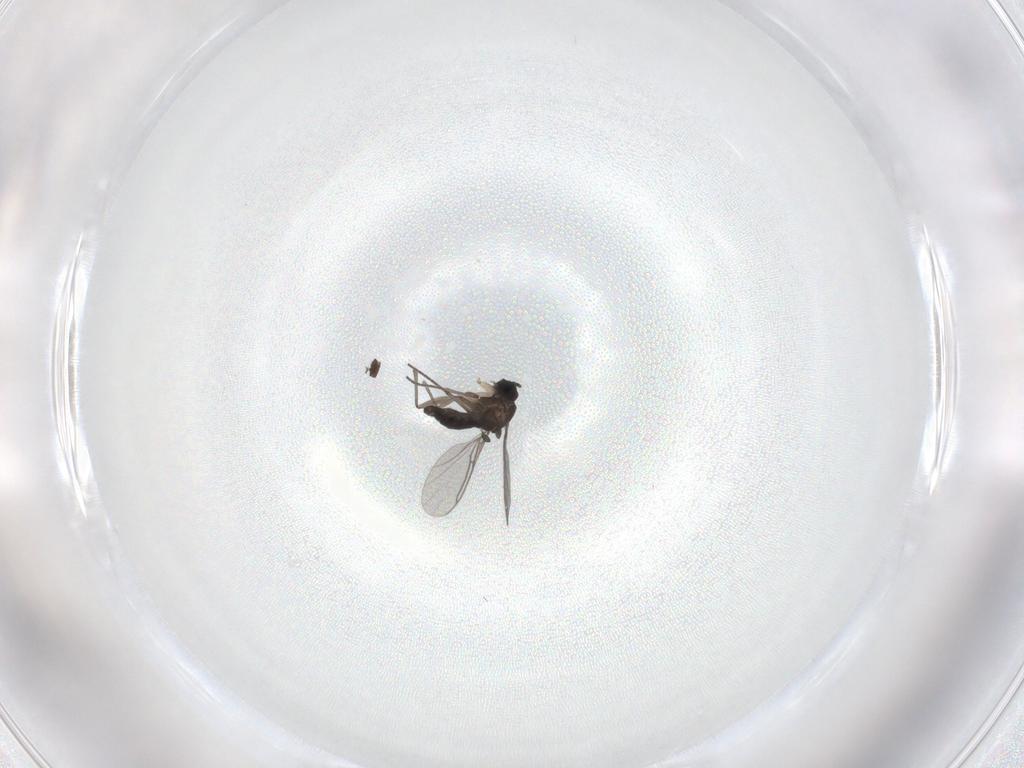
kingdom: Animalia
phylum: Arthropoda
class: Insecta
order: Diptera
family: Sciaridae
